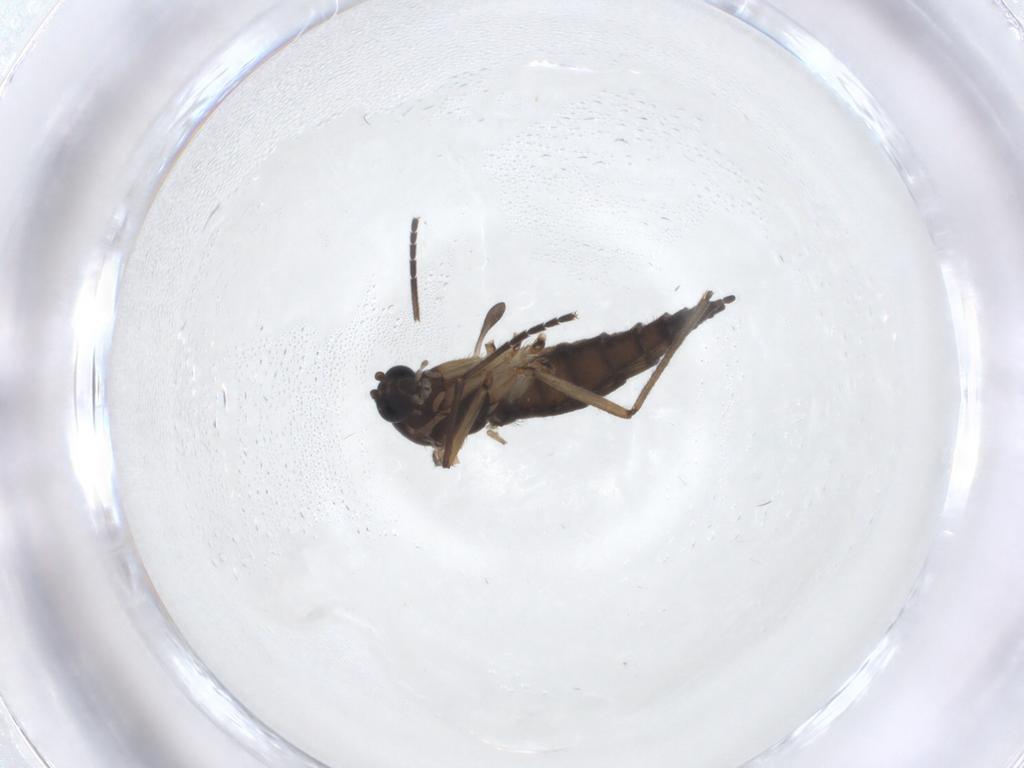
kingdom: Animalia
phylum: Arthropoda
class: Insecta
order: Diptera
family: Sciaridae
